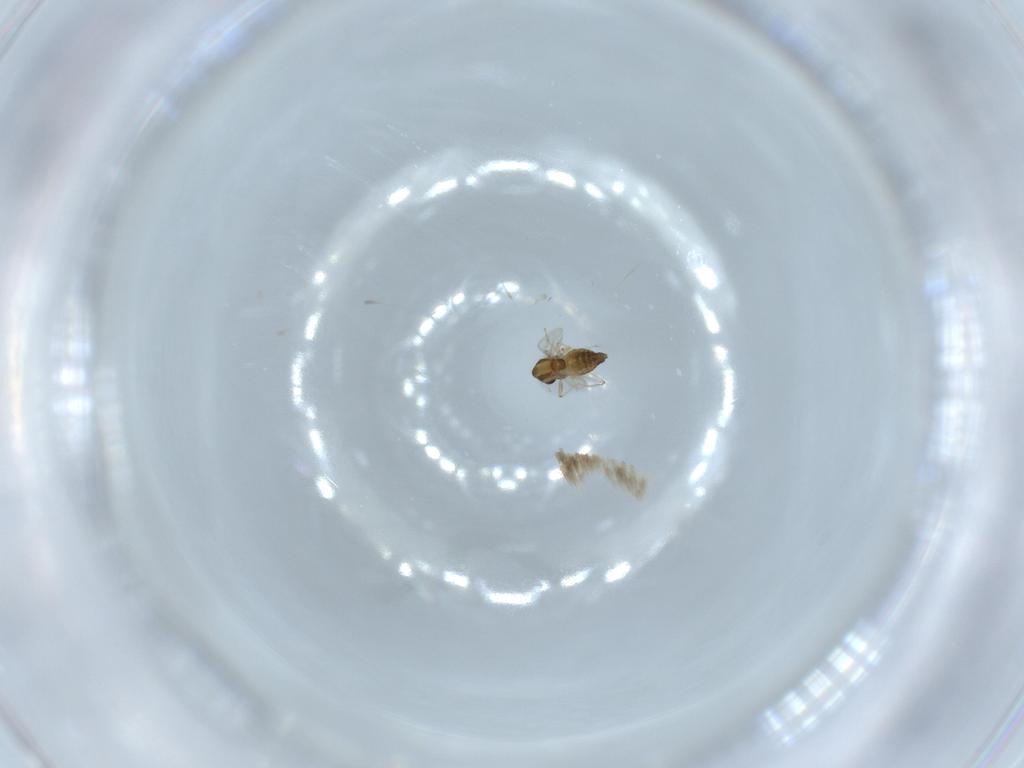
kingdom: Animalia
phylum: Arthropoda
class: Insecta
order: Diptera
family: Chironomidae
